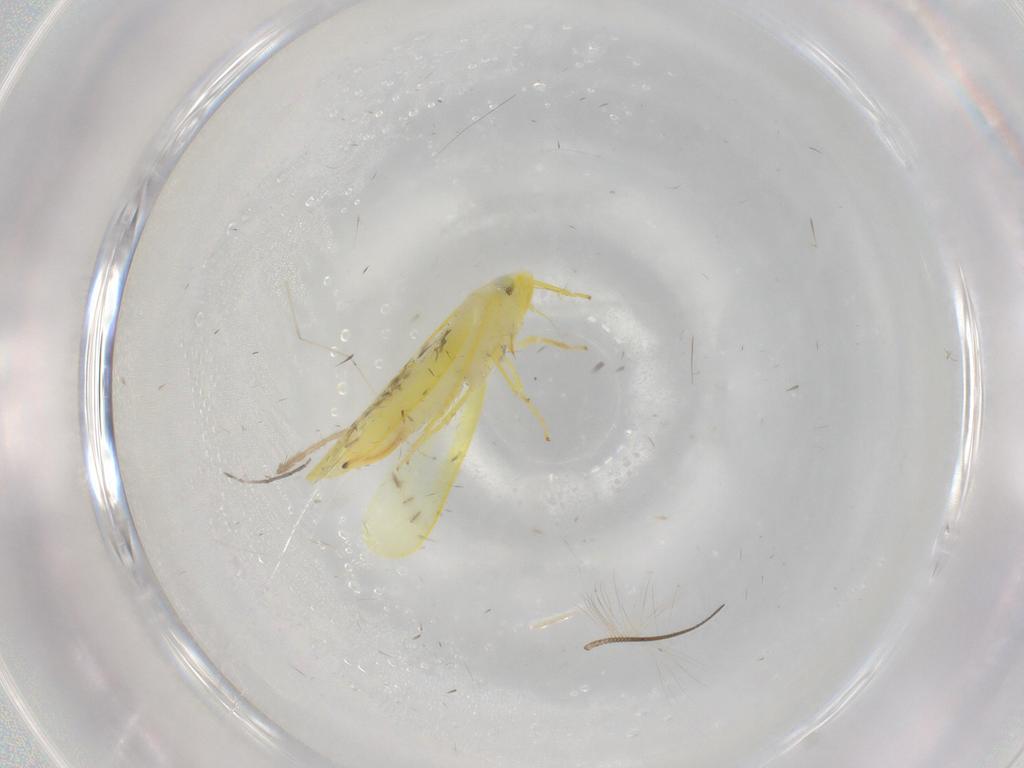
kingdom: Animalia
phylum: Arthropoda
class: Insecta
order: Hemiptera
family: Cicadellidae
